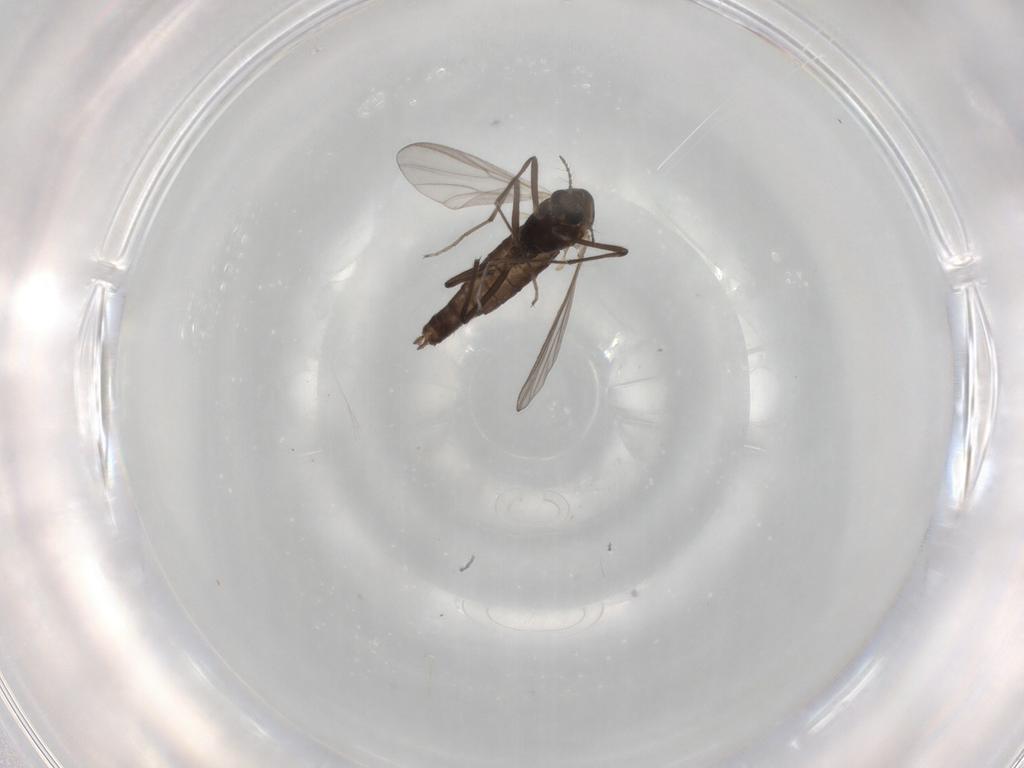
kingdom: Animalia
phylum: Arthropoda
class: Insecta
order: Diptera
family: Chironomidae
